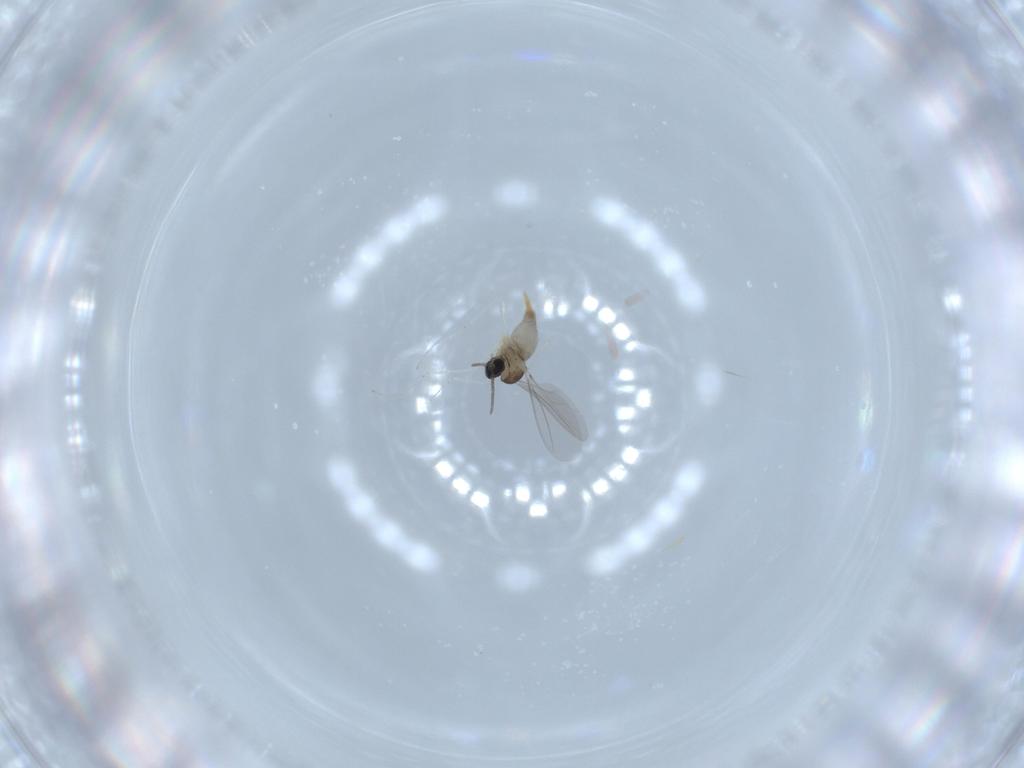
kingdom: Animalia
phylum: Arthropoda
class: Insecta
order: Diptera
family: Cecidomyiidae
